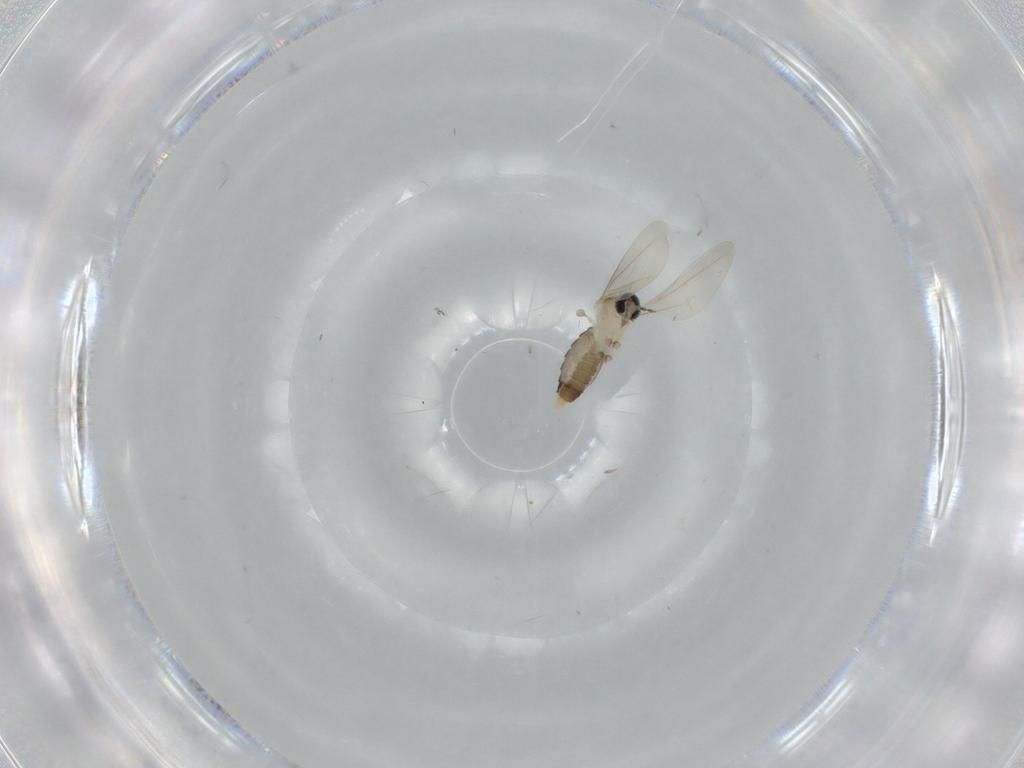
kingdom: Animalia
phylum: Arthropoda
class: Insecta
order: Diptera
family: Cecidomyiidae
